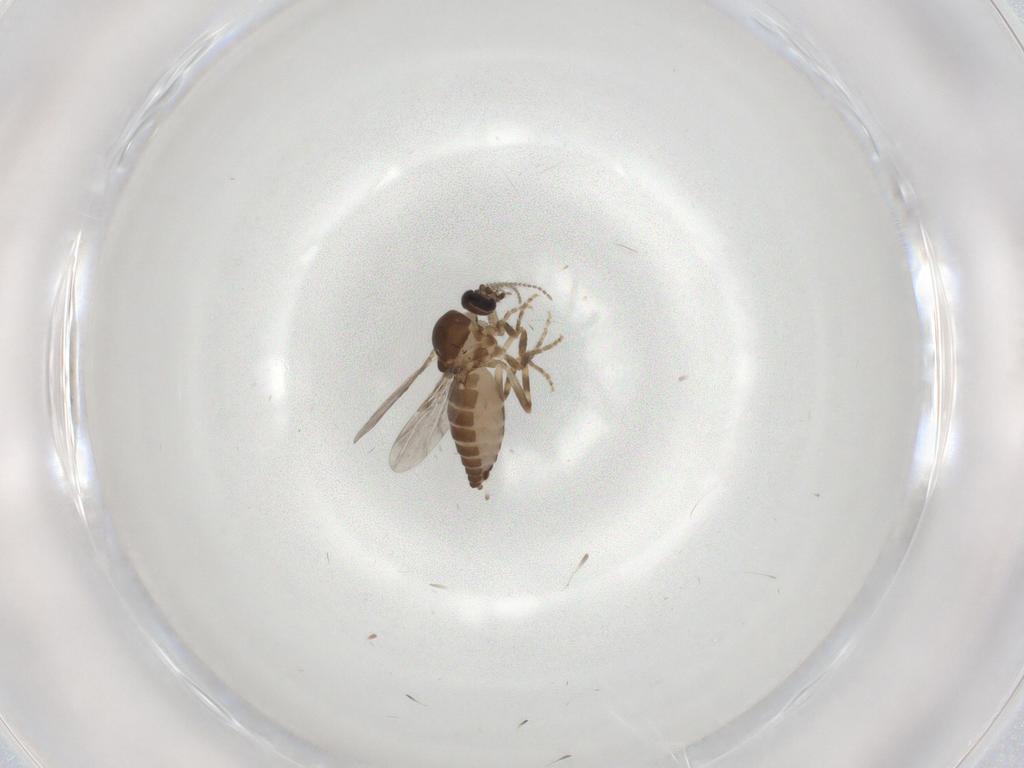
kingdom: Animalia
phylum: Arthropoda
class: Insecta
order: Diptera
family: Ceratopogonidae
